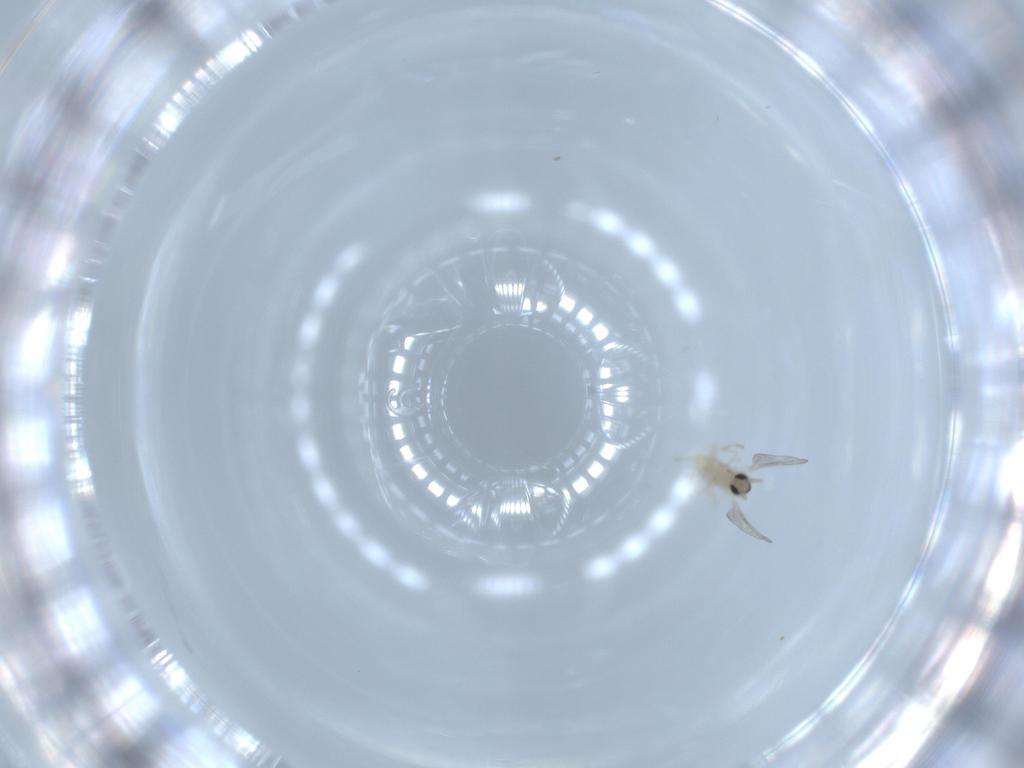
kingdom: Animalia
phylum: Arthropoda
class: Insecta
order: Diptera
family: Cecidomyiidae
